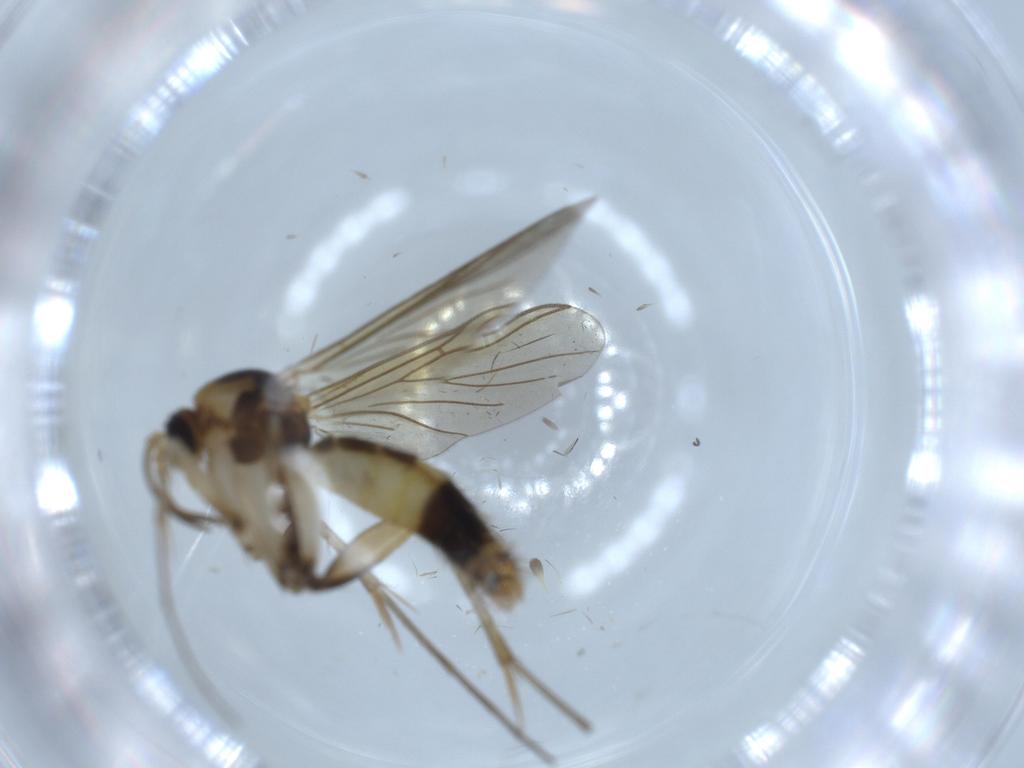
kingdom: Animalia
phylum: Arthropoda
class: Insecta
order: Diptera
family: Mycetophilidae
